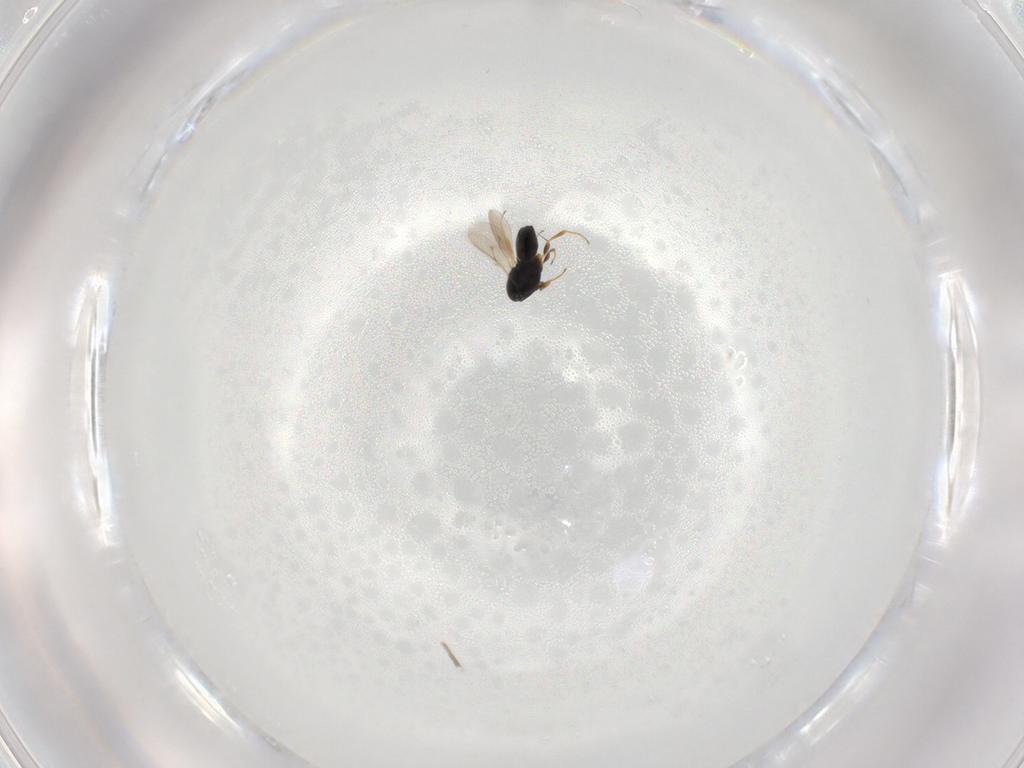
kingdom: Animalia
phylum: Arthropoda
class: Insecta
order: Hymenoptera
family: Scelionidae
